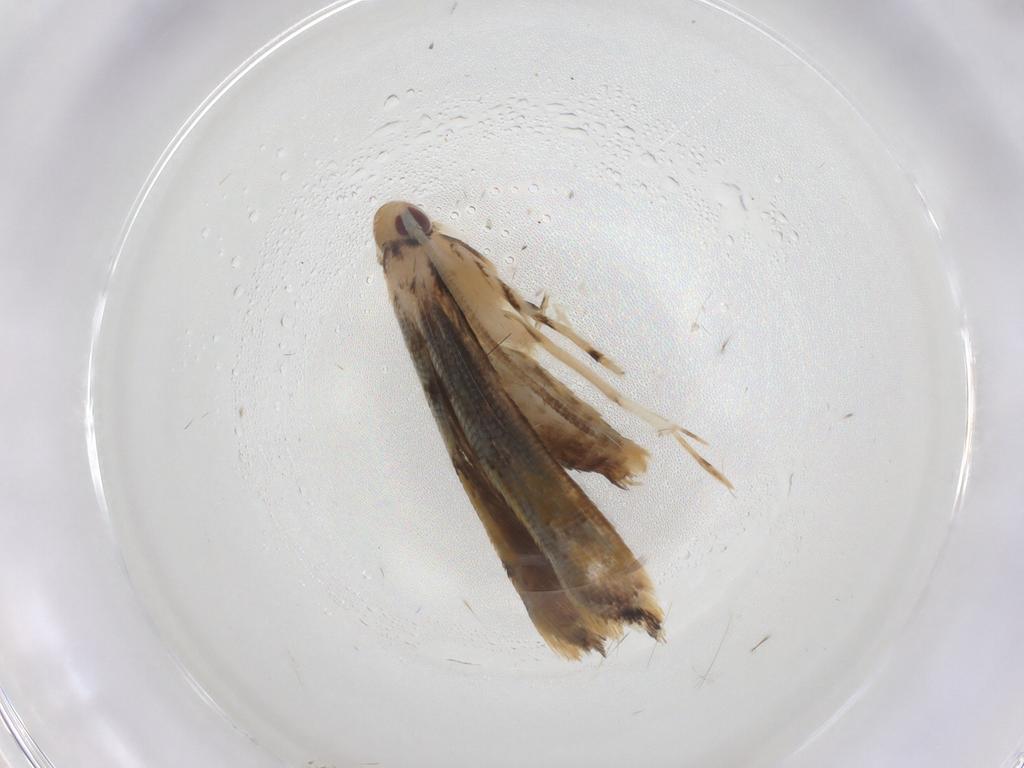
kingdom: Animalia
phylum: Arthropoda
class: Insecta
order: Lepidoptera
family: Momphidae
